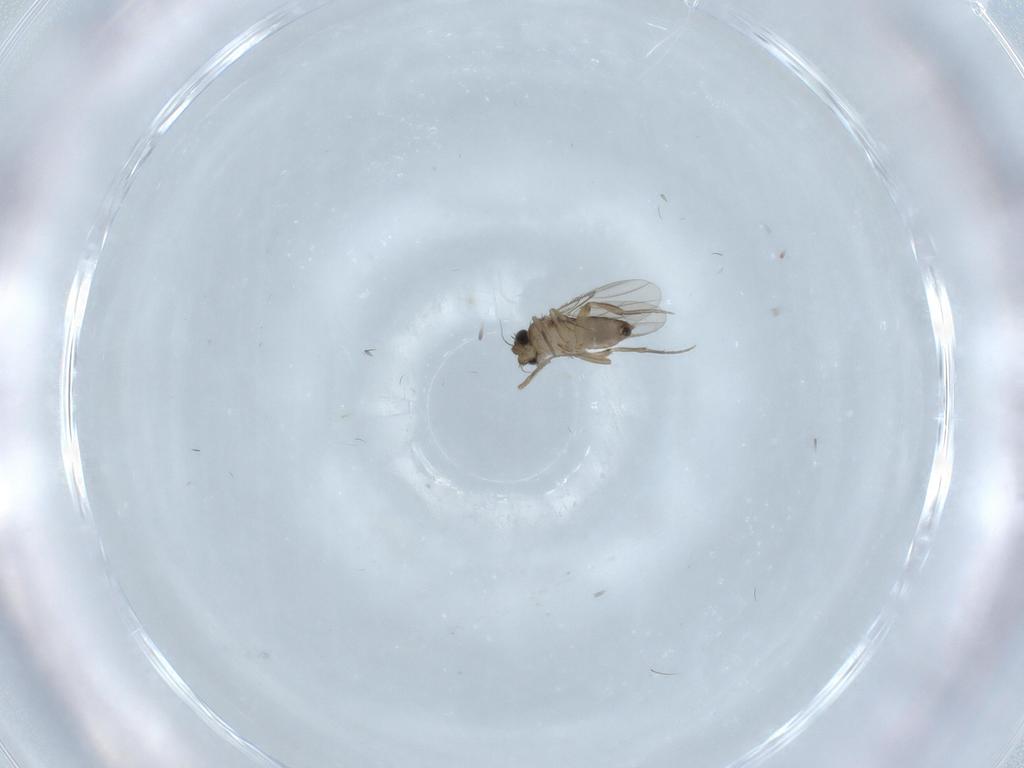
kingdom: Animalia
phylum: Arthropoda
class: Insecta
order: Diptera
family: Phoridae
